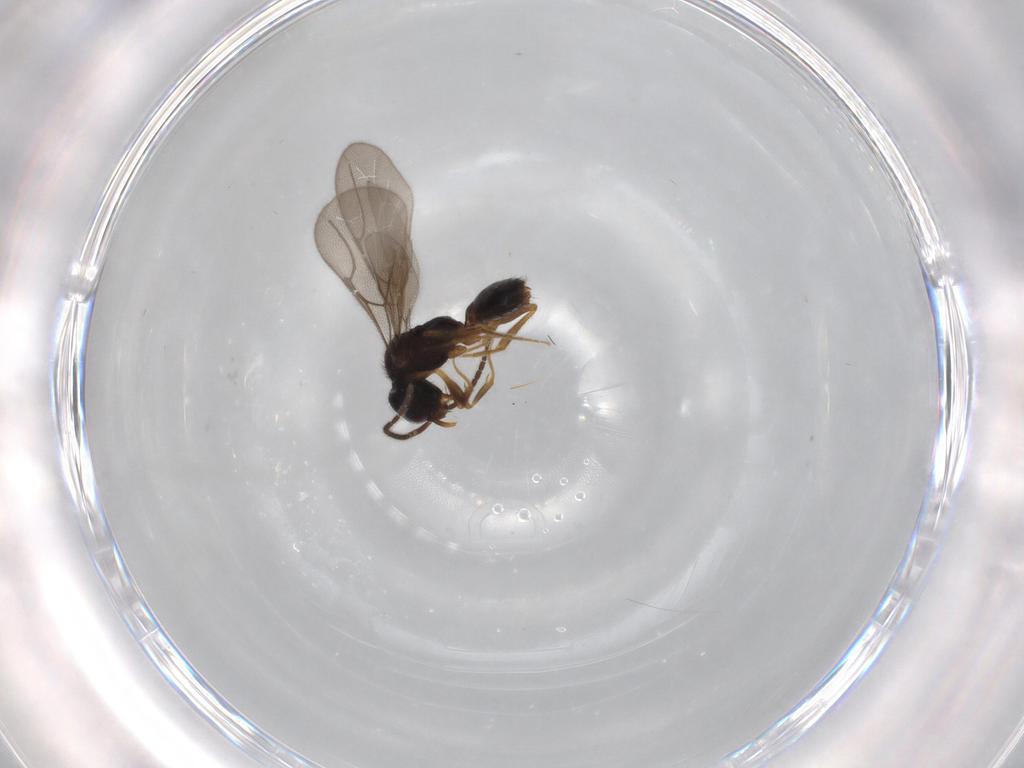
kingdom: Animalia
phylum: Arthropoda
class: Insecta
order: Hymenoptera
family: Bethylidae
